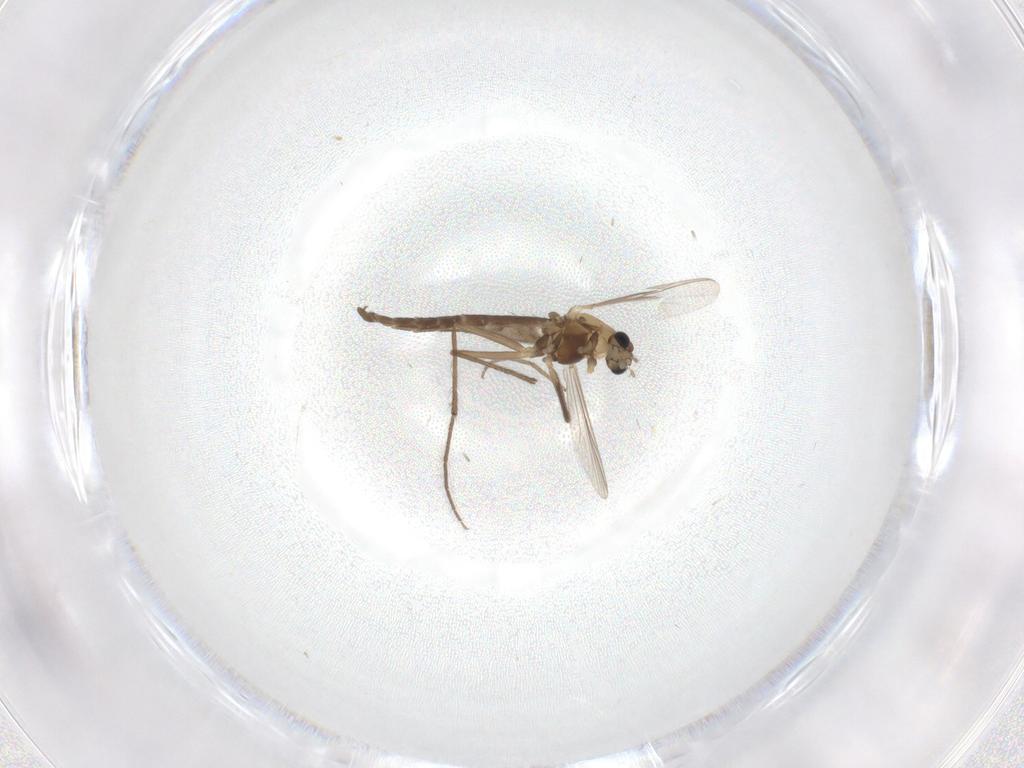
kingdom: Animalia
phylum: Arthropoda
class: Insecta
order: Diptera
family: Chironomidae
